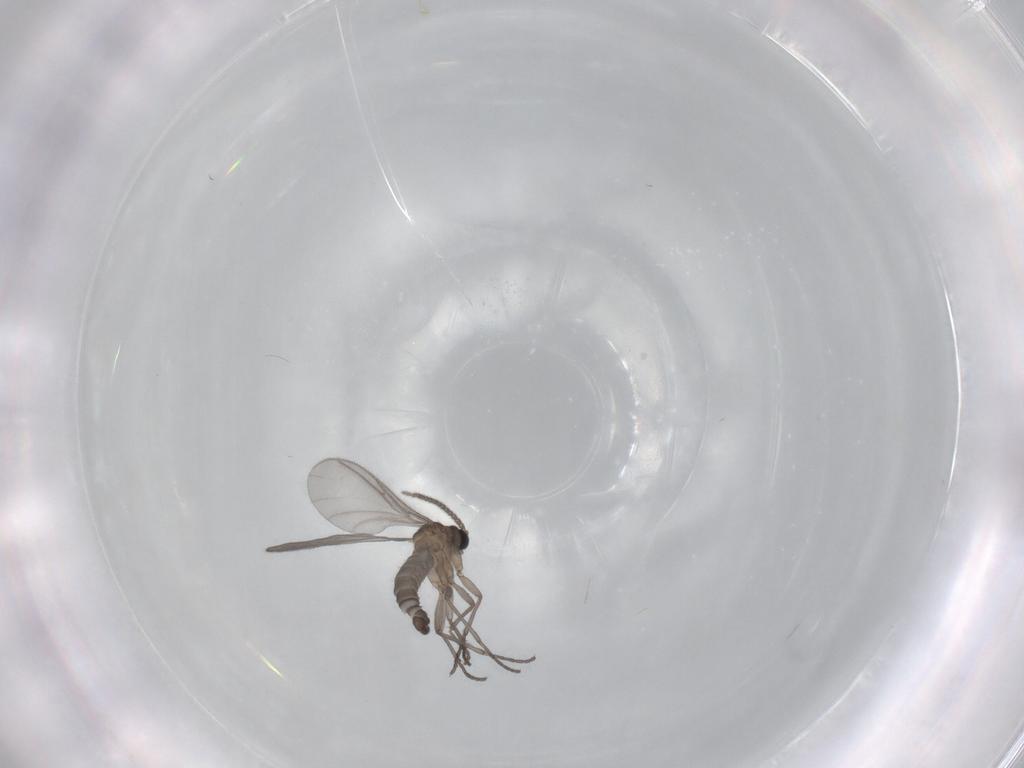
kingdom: Animalia
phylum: Arthropoda
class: Insecta
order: Diptera
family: Sciaridae
